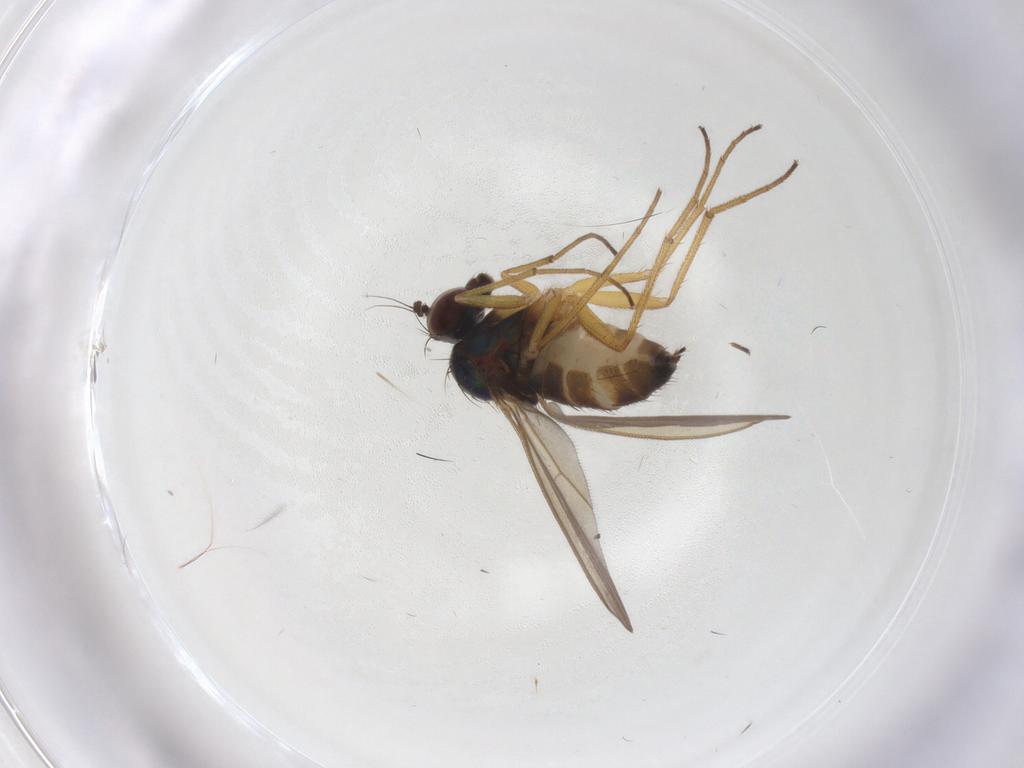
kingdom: Animalia
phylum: Arthropoda
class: Insecta
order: Diptera
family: Dolichopodidae
